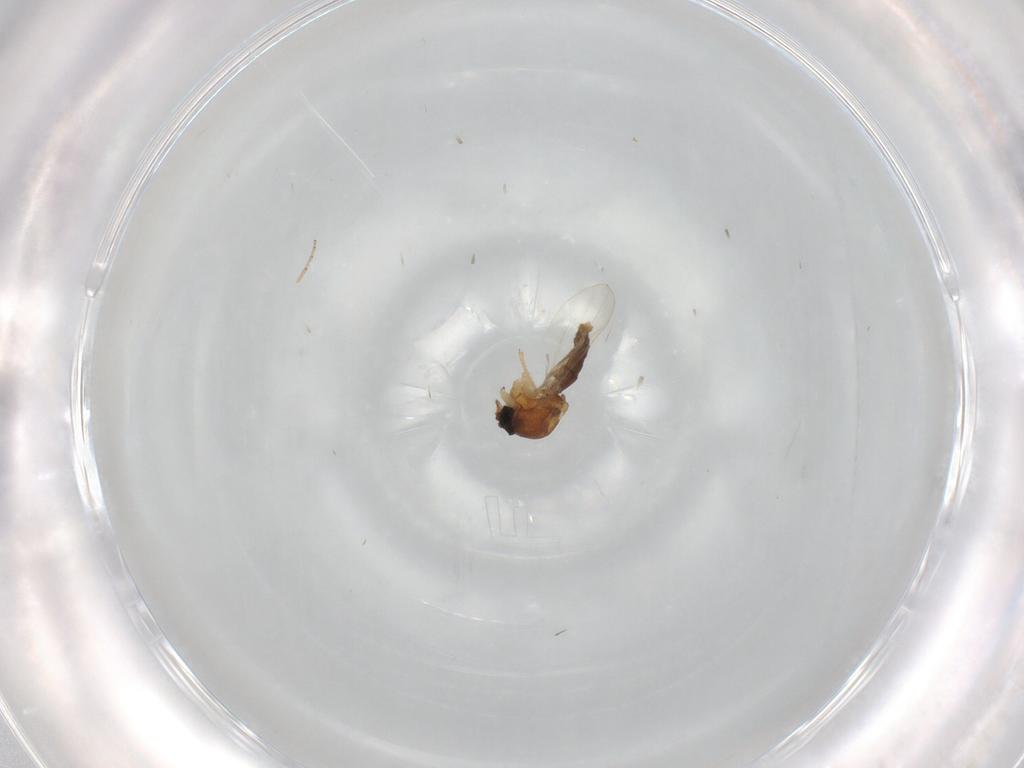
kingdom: Animalia
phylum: Arthropoda
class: Insecta
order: Diptera
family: Ceratopogonidae
